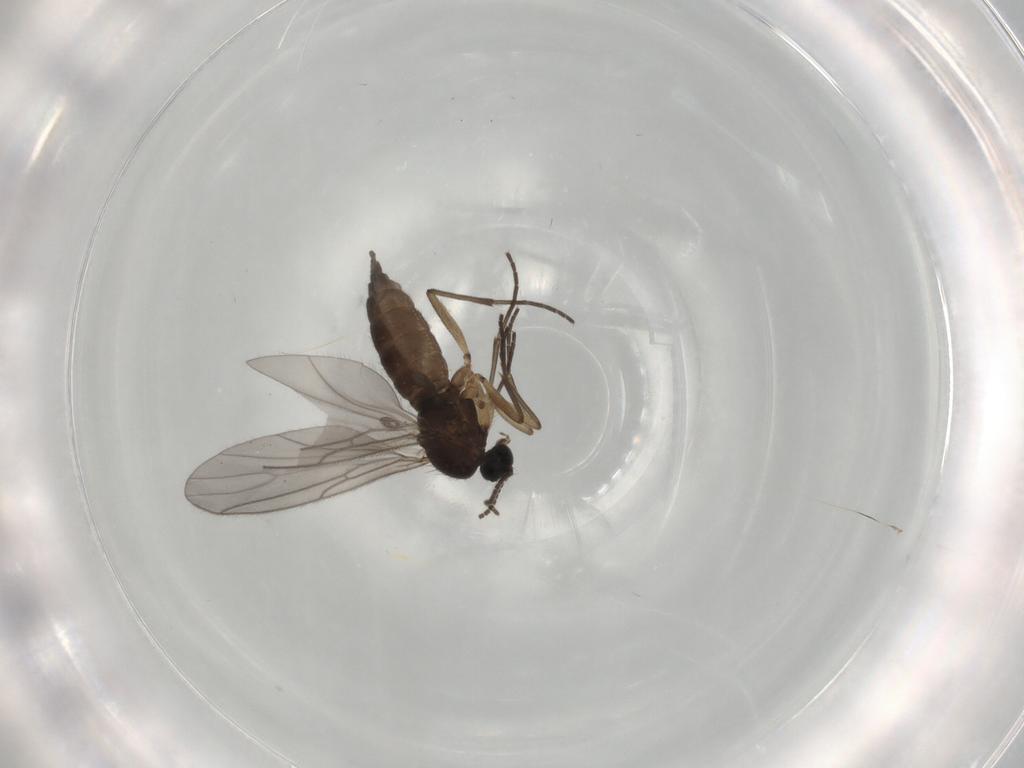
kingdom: Animalia
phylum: Arthropoda
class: Insecta
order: Diptera
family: Sciaridae
